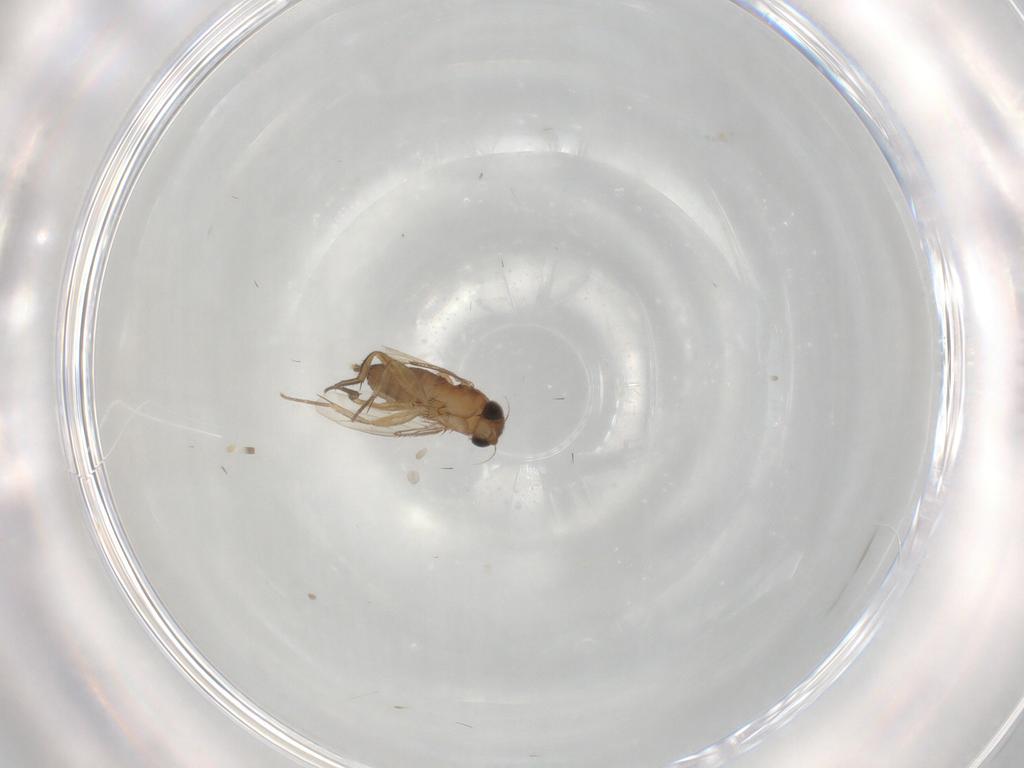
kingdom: Animalia
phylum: Arthropoda
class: Insecta
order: Diptera
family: Phoridae
